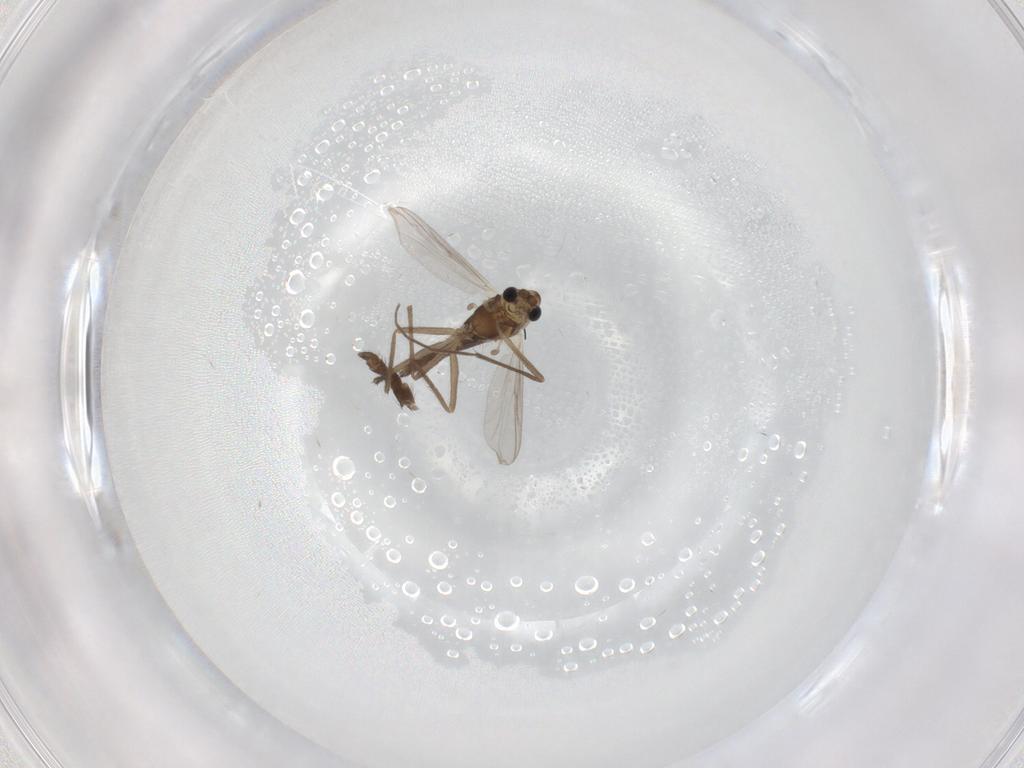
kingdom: Animalia
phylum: Arthropoda
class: Insecta
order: Diptera
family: Chironomidae
